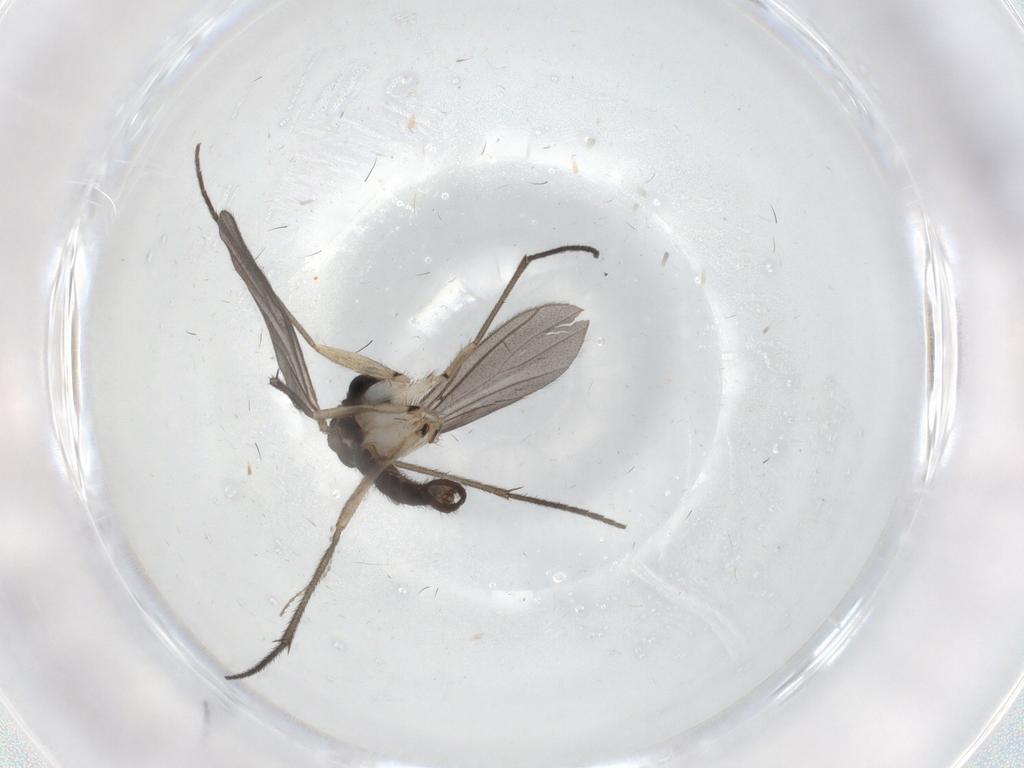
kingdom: Animalia
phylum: Arthropoda
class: Insecta
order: Diptera
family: Sciaridae
